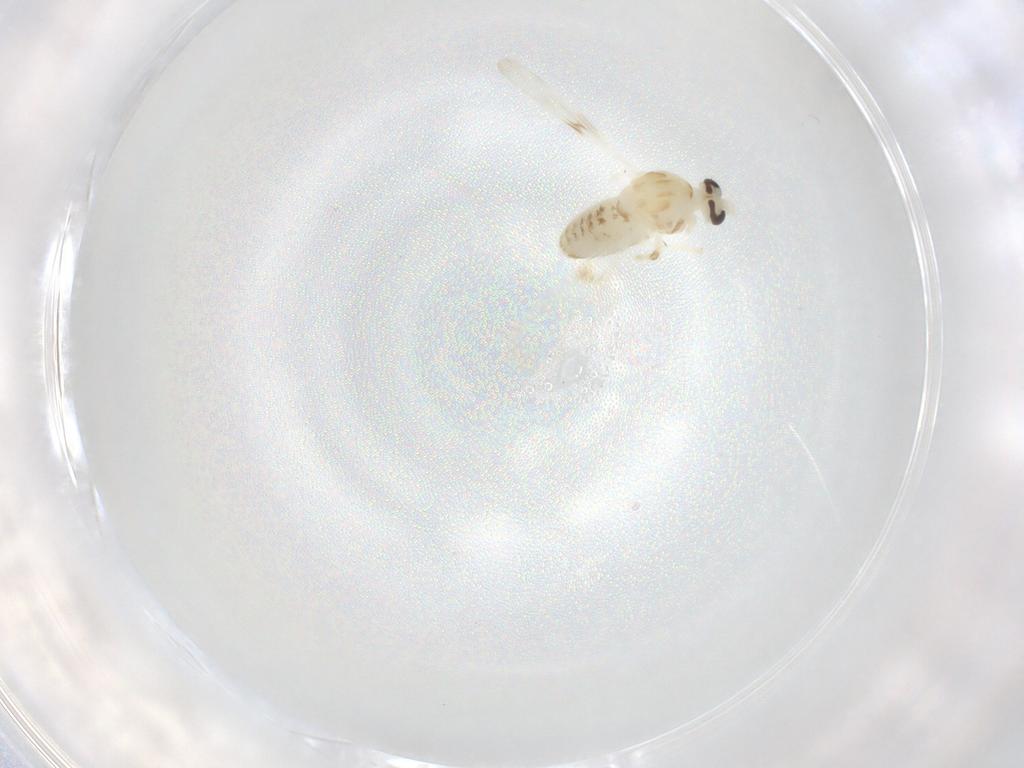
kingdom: Animalia
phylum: Arthropoda
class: Insecta
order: Diptera
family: Chironomidae
